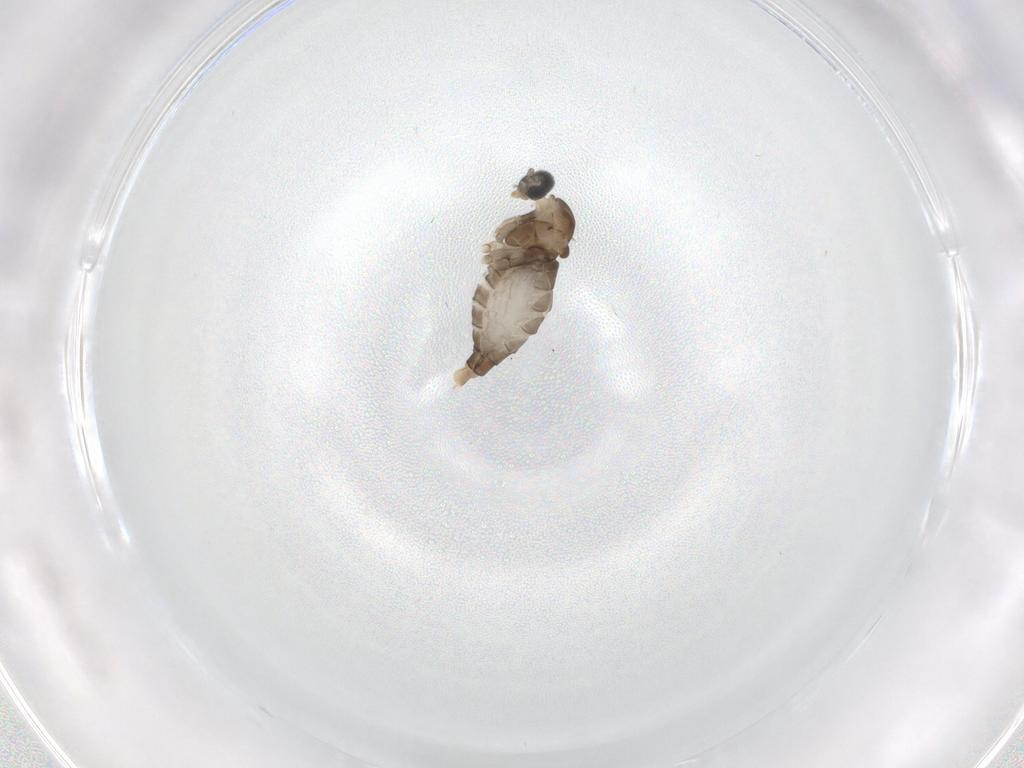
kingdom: Animalia
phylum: Arthropoda
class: Insecta
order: Diptera
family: Cecidomyiidae
